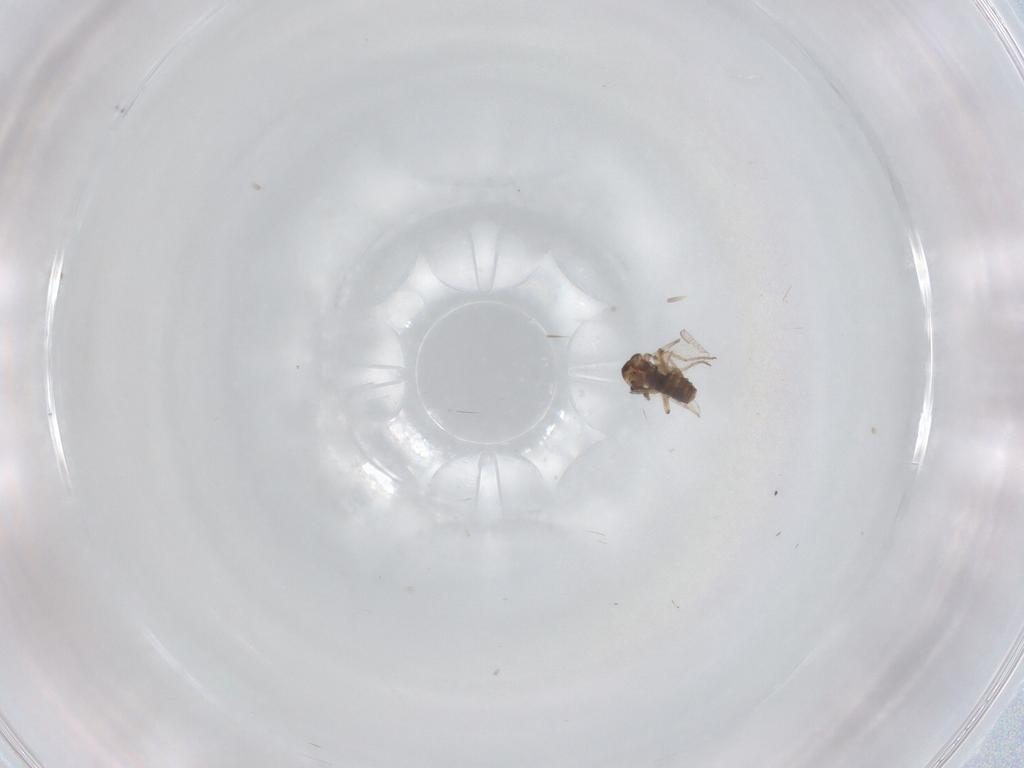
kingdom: Animalia
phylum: Arthropoda
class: Insecta
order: Diptera
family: Ceratopogonidae
